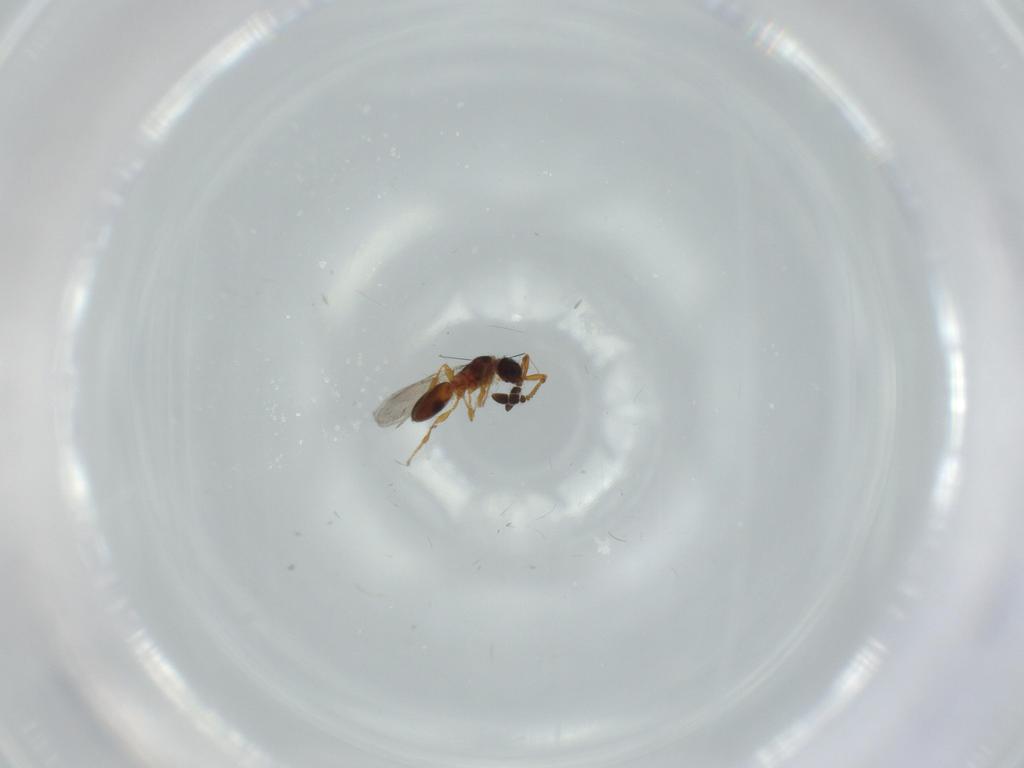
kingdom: Animalia
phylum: Arthropoda
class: Insecta
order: Hymenoptera
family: Diapriidae
